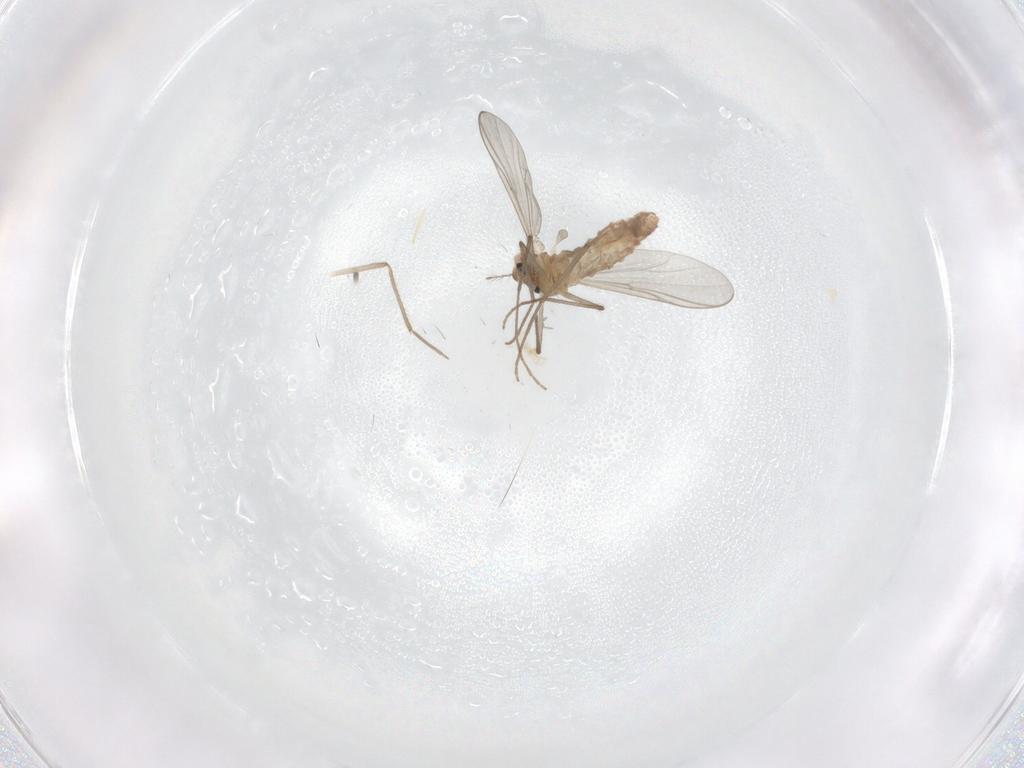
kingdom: Animalia
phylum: Arthropoda
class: Insecta
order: Diptera
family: Chironomidae
